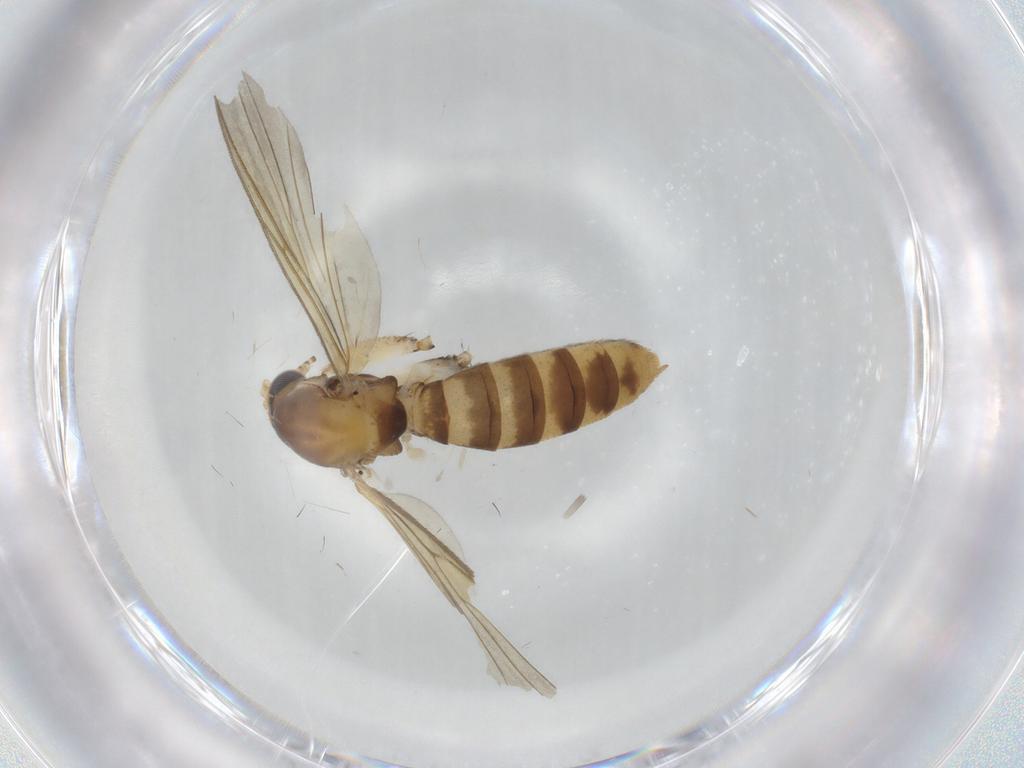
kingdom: Animalia
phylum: Arthropoda
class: Insecta
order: Diptera
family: Mycetophilidae
